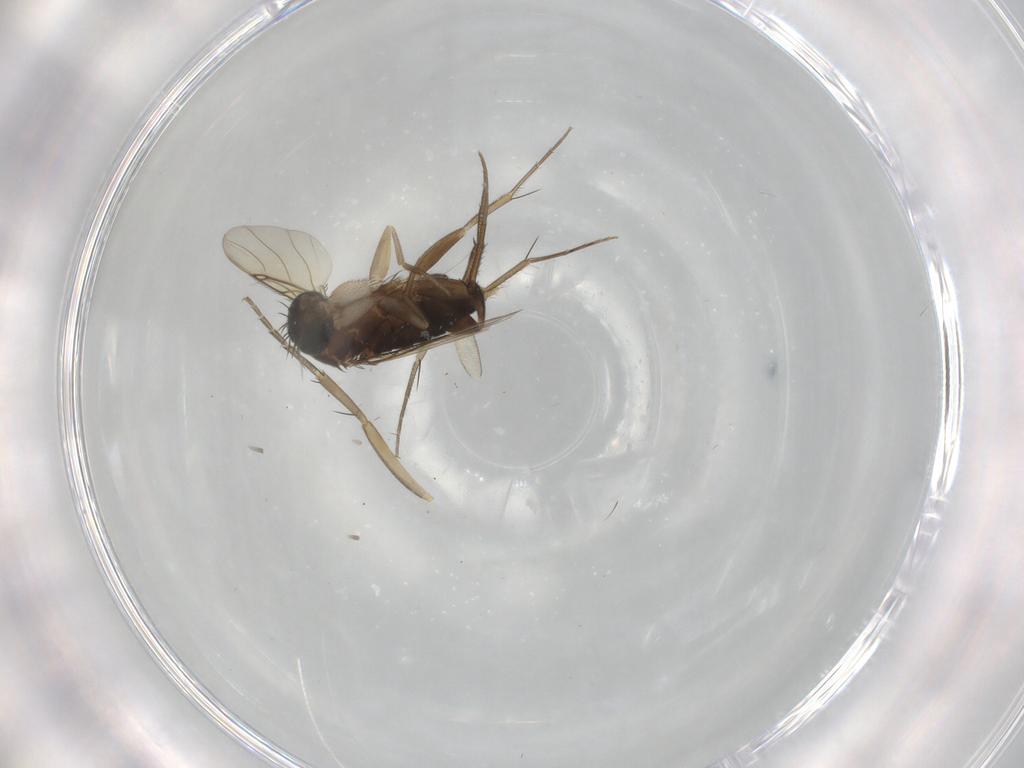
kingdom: Animalia
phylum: Arthropoda
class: Insecta
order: Diptera
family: Phoridae
